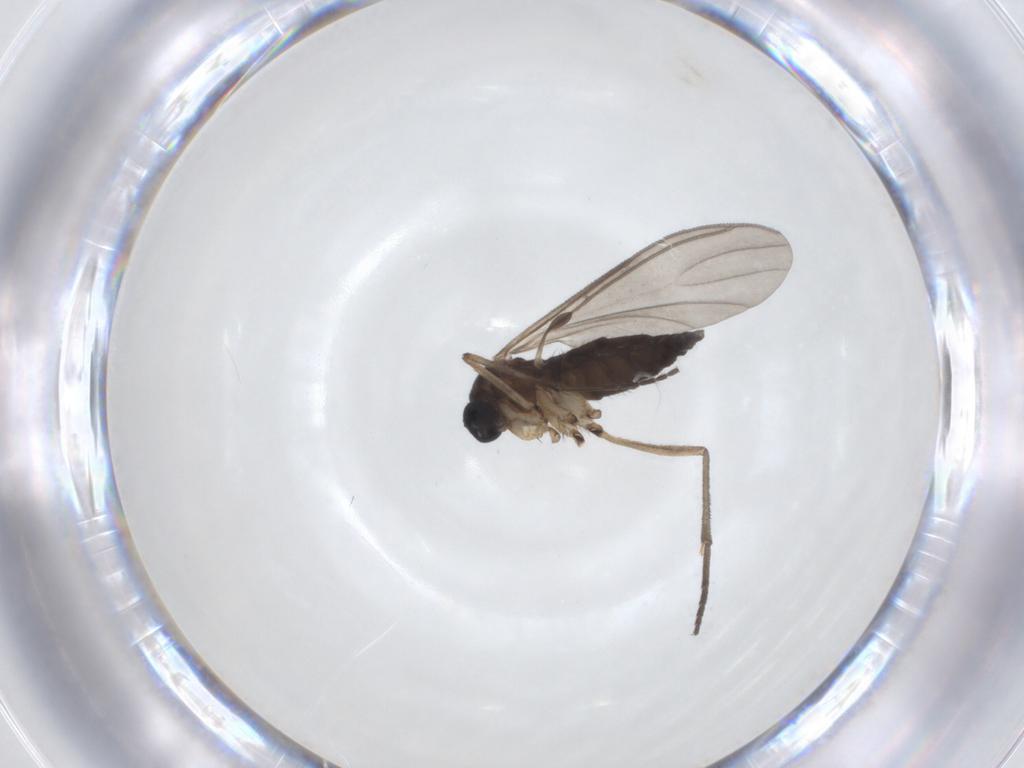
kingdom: Animalia
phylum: Arthropoda
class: Insecta
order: Diptera
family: Sciaridae
